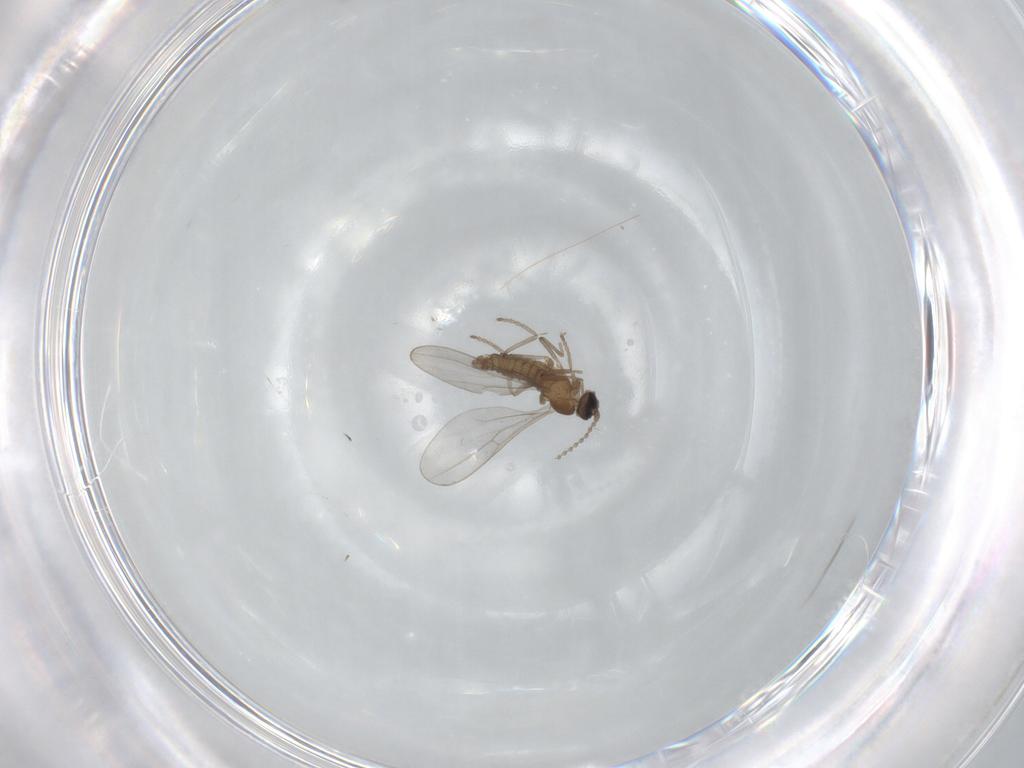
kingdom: Animalia
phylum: Arthropoda
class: Insecta
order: Diptera
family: Cecidomyiidae
